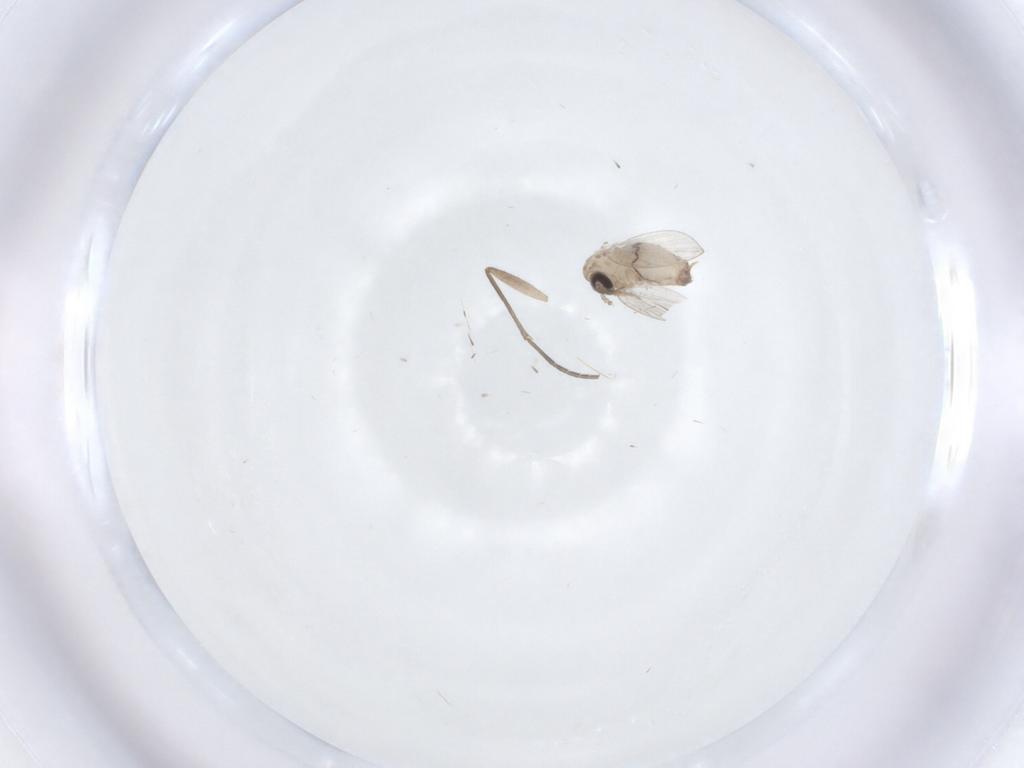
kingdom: Animalia
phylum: Arthropoda
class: Insecta
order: Diptera
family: Psychodidae
